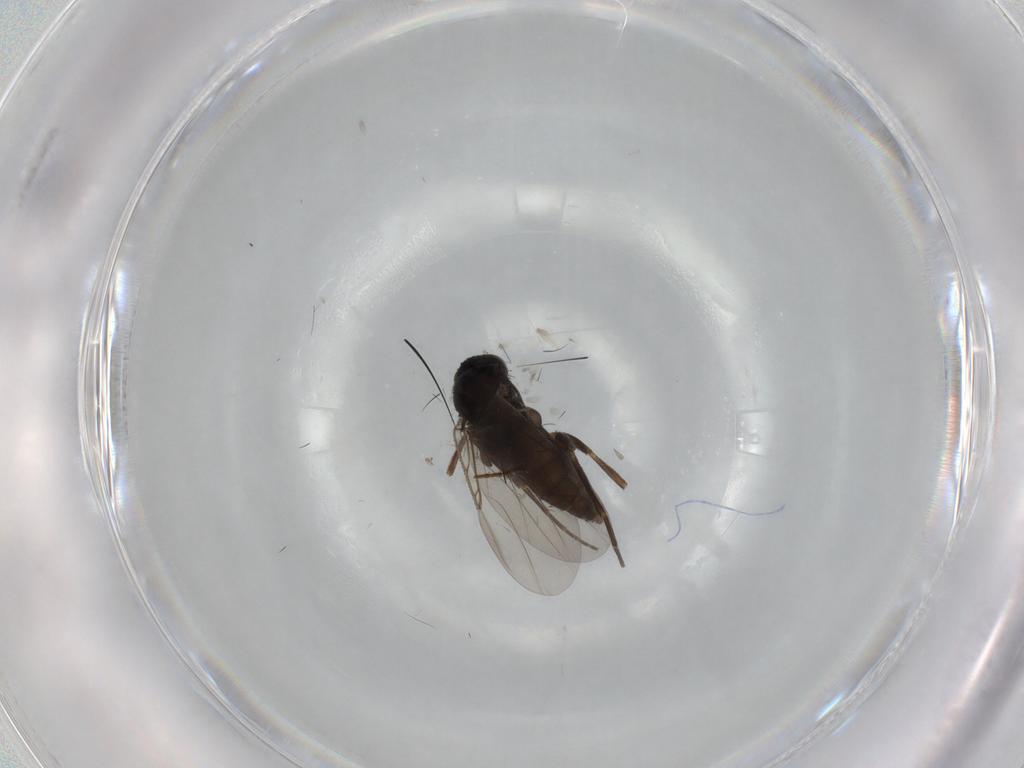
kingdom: Animalia
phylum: Arthropoda
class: Insecta
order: Diptera
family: Phoridae
